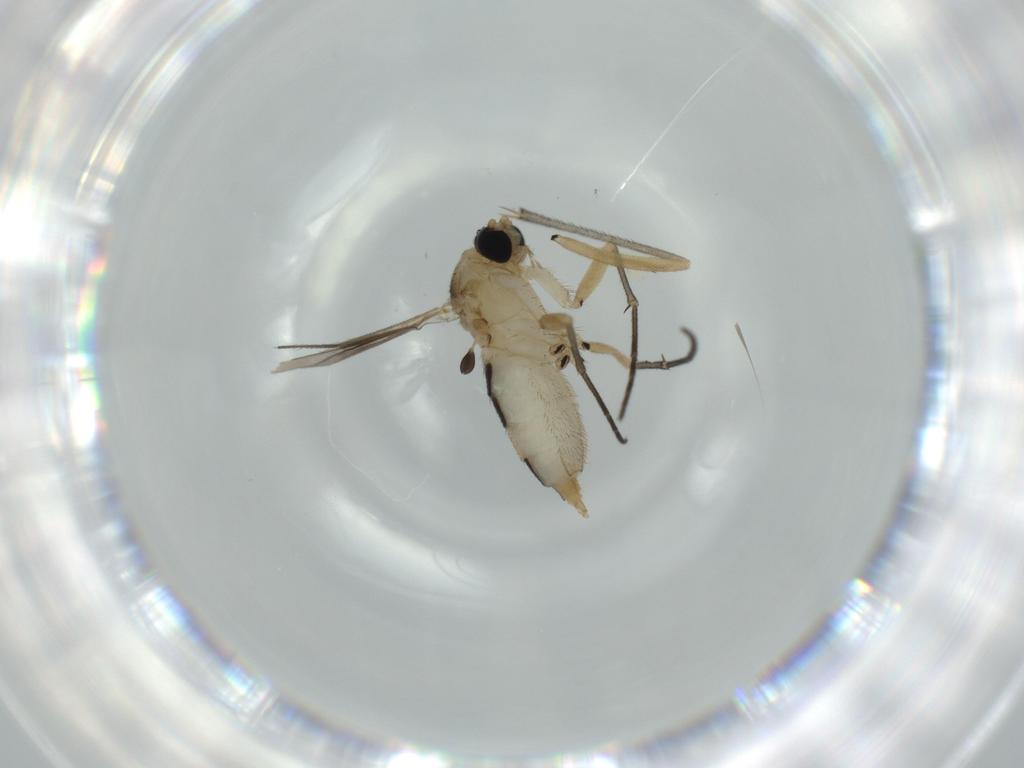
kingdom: Animalia
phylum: Arthropoda
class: Insecta
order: Diptera
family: Sciaridae
